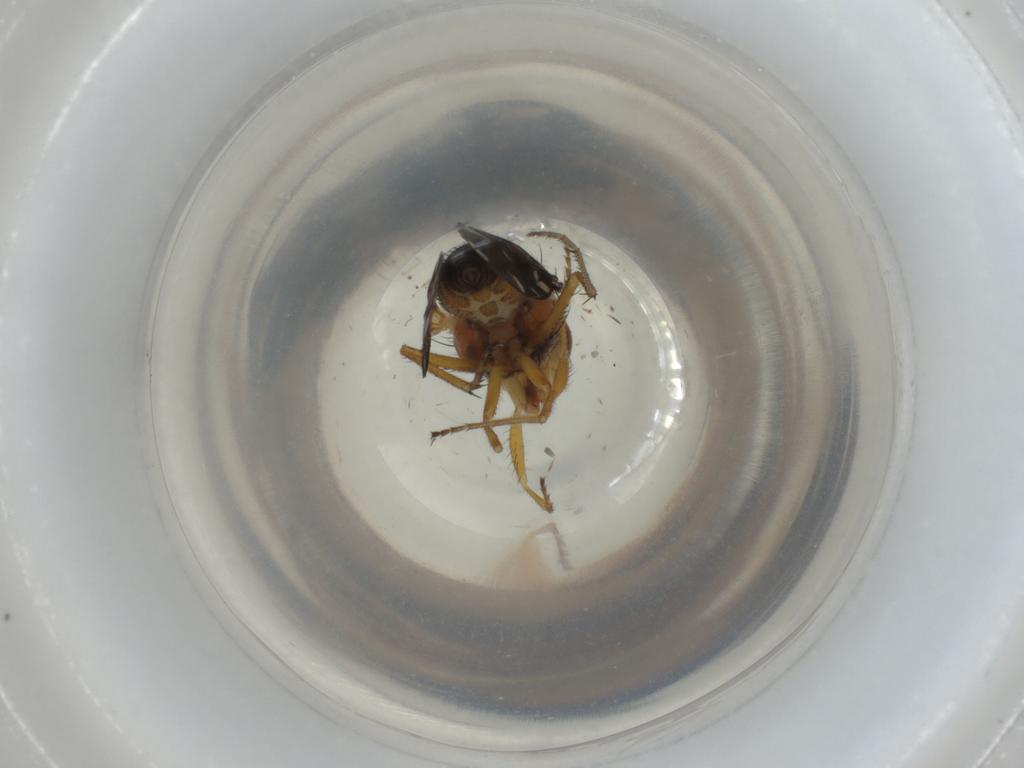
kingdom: Animalia
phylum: Arthropoda
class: Insecta
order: Diptera
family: Ephydridae
